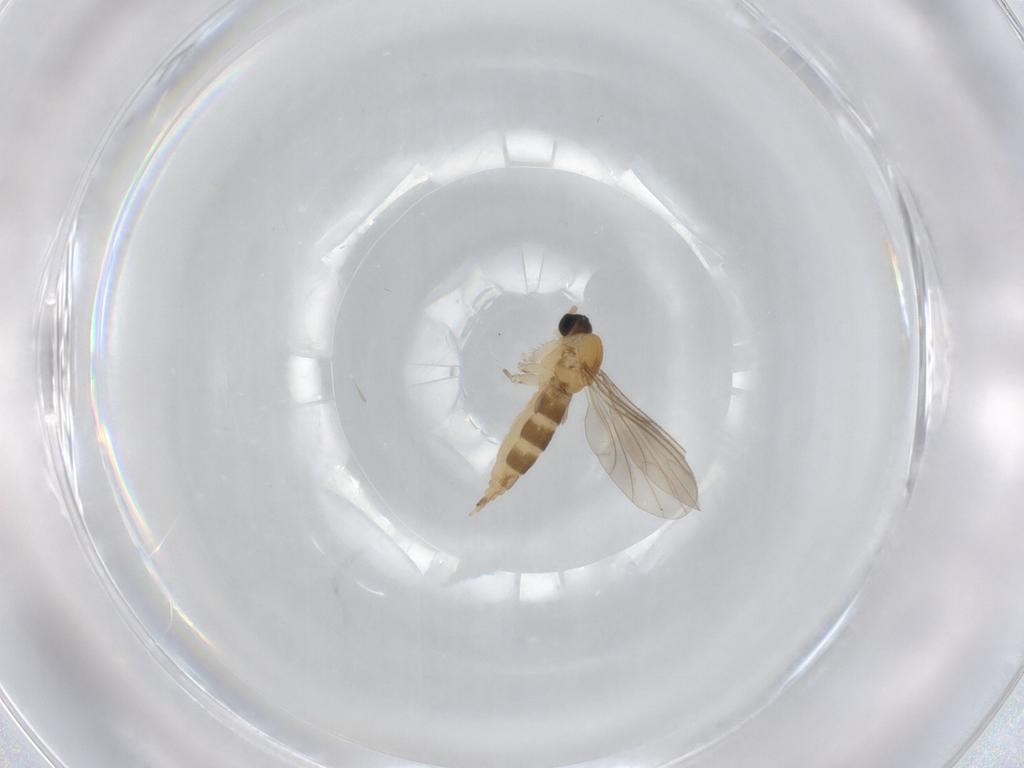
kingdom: Animalia
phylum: Arthropoda
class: Insecta
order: Diptera
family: Sciaridae
